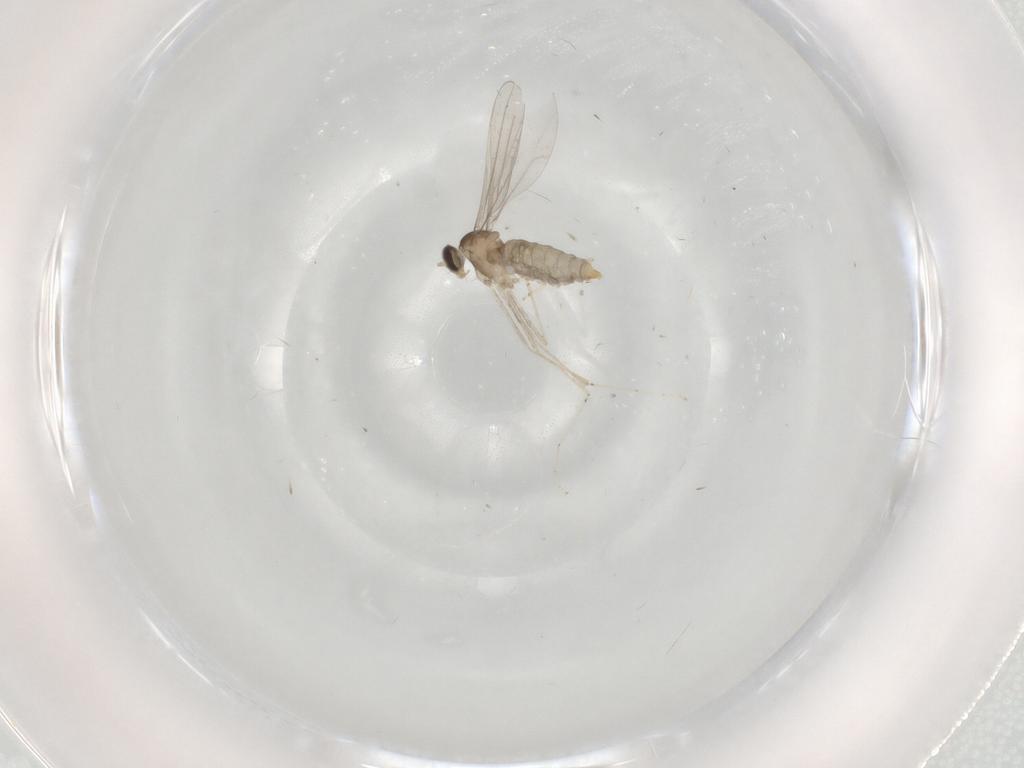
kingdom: Animalia
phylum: Arthropoda
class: Insecta
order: Diptera
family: Cecidomyiidae
